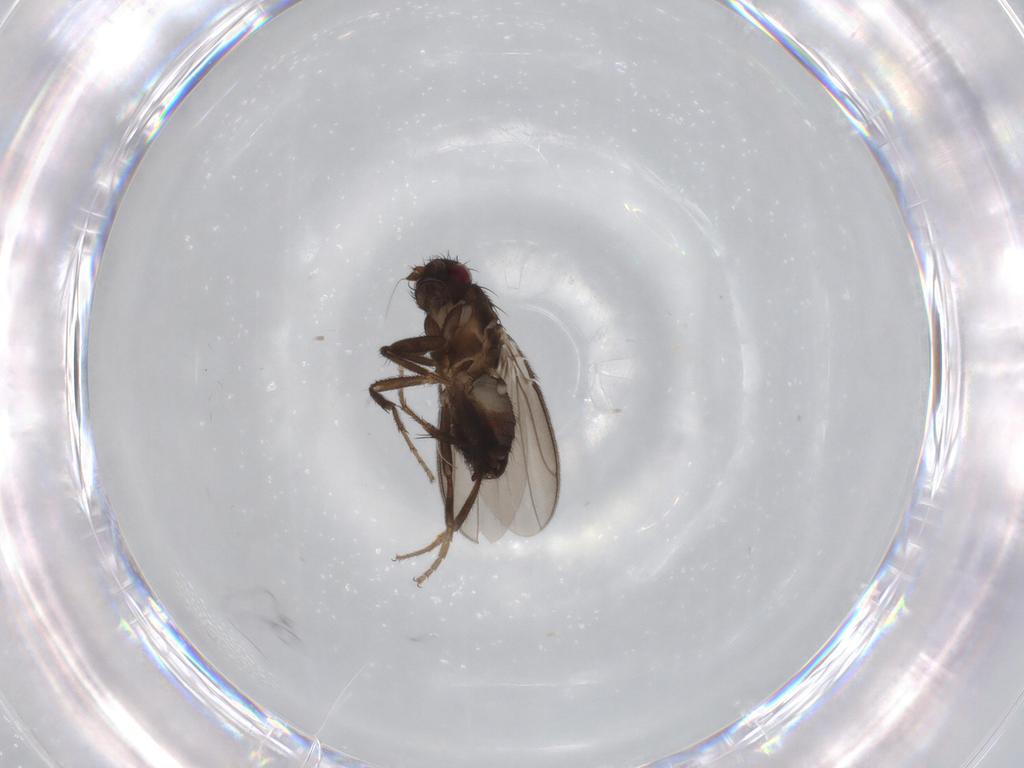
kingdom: Animalia
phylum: Arthropoda
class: Insecta
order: Diptera
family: Sphaeroceridae
